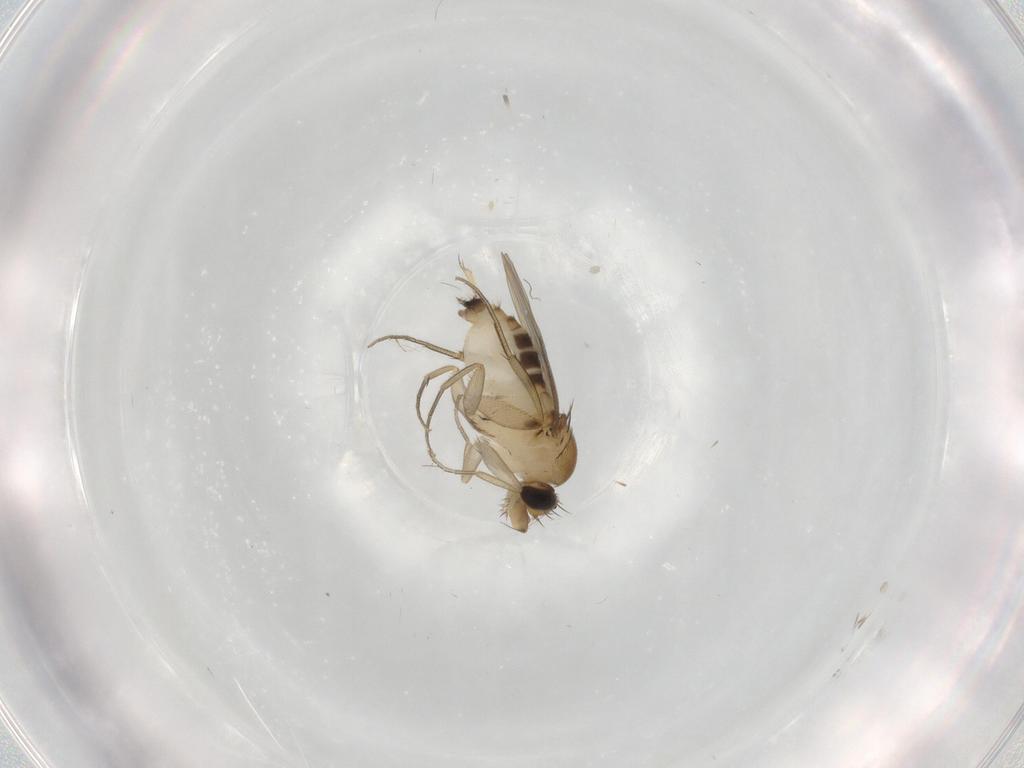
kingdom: Animalia
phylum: Arthropoda
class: Insecta
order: Diptera
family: Phoridae
